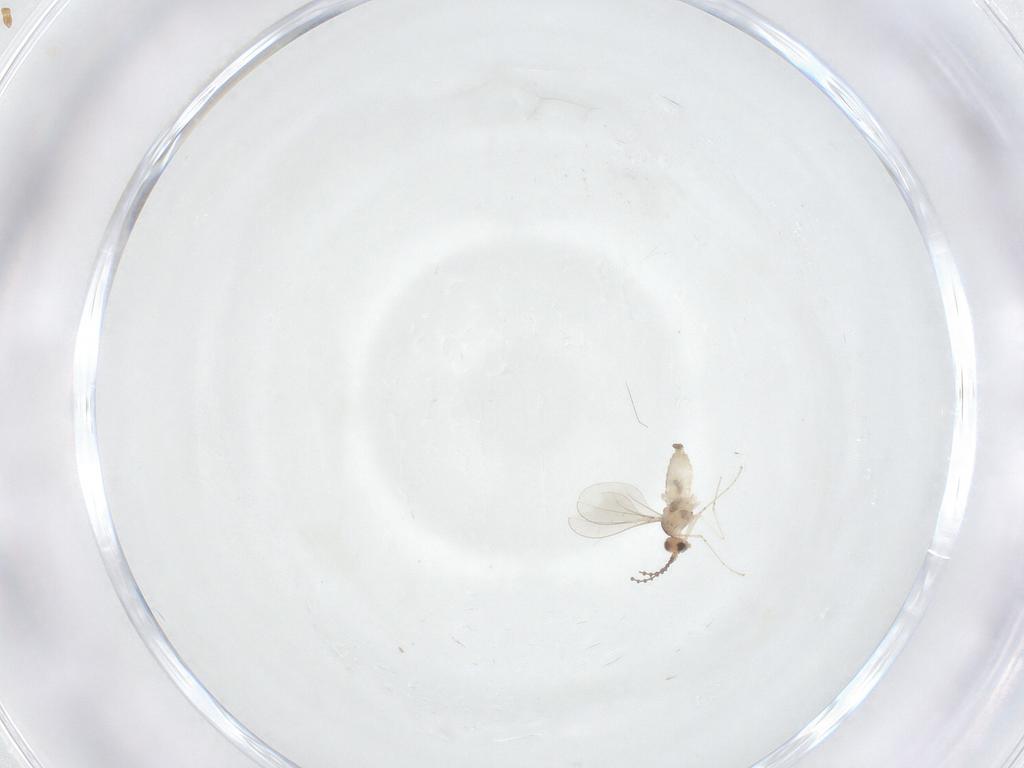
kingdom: Animalia
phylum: Arthropoda
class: Insecta
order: Diptera
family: Cecidomyiidae
